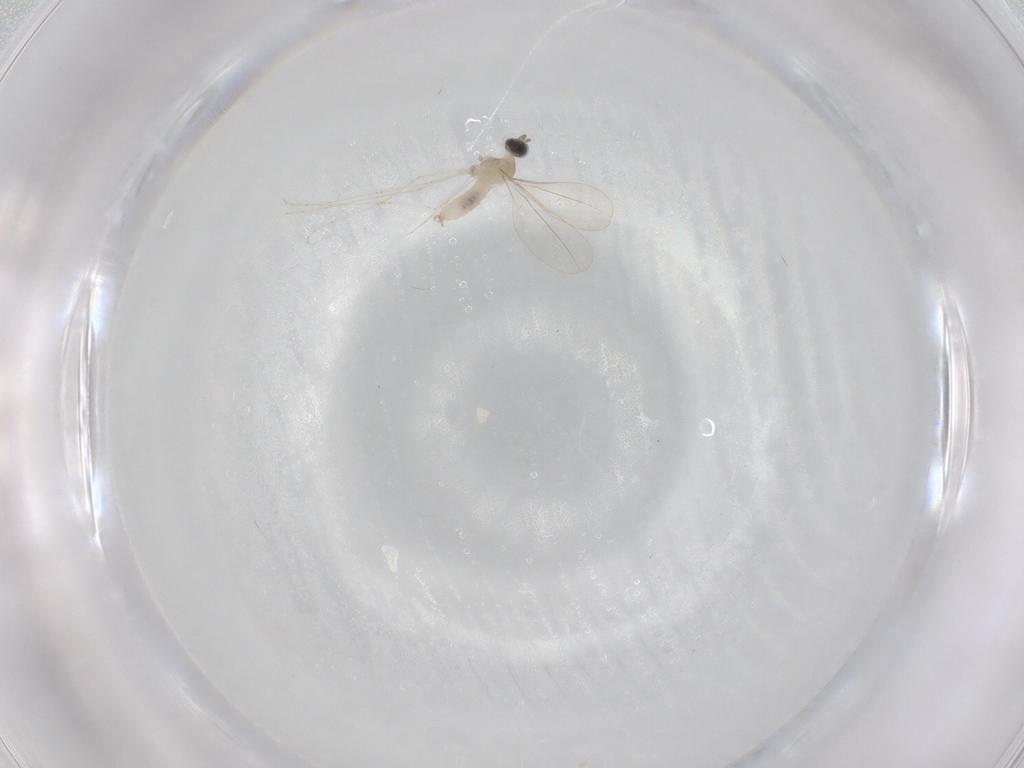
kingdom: Animalia
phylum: Arthropoda
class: Insecta
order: Diptera
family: Cecidomyiidae
